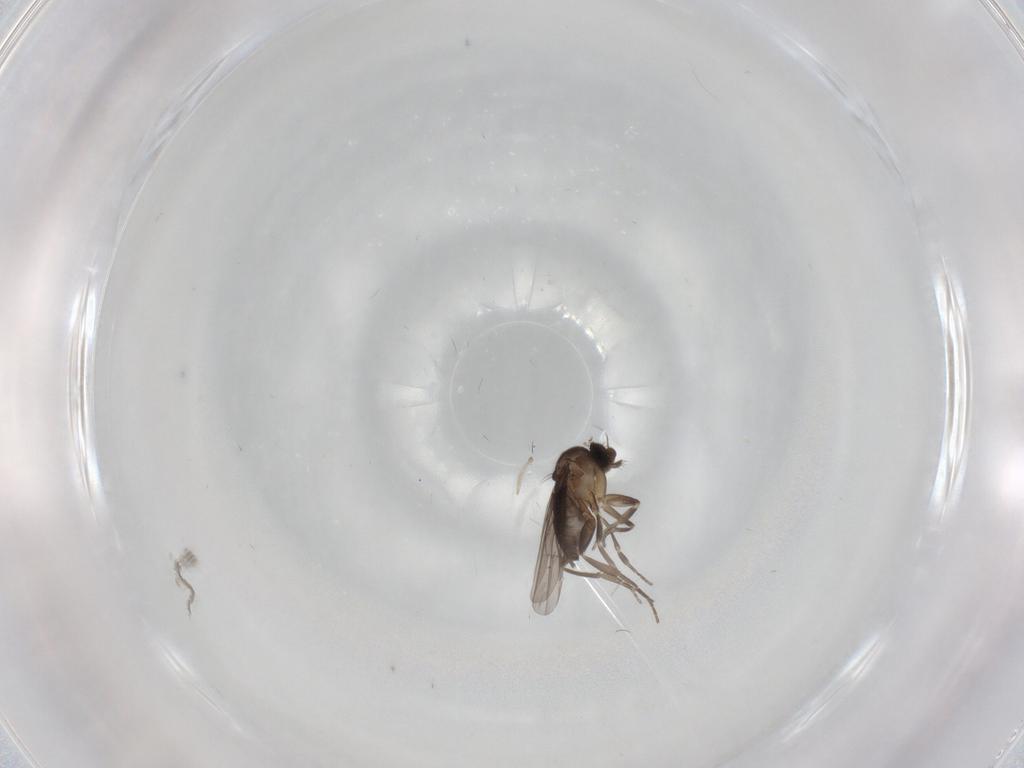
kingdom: Animalia
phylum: Arthropoda
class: Insecta
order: Diptera
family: Phoridae
